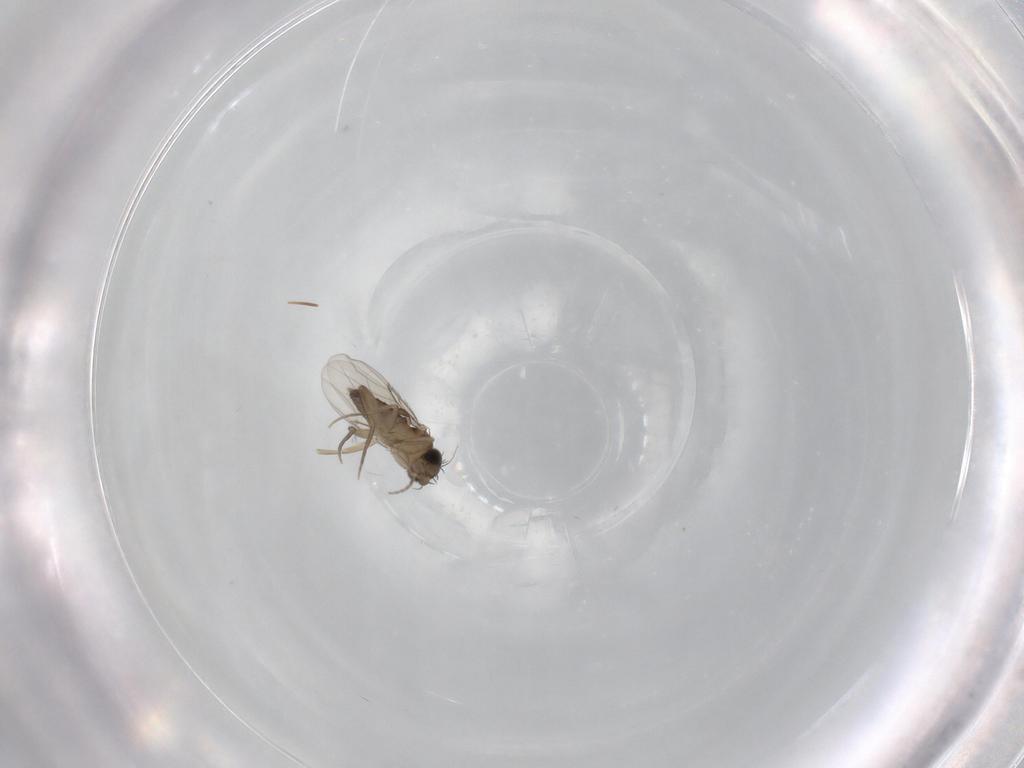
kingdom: Animalia
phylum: Arthropoda
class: Insecta
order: Diptera
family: Phoridae
